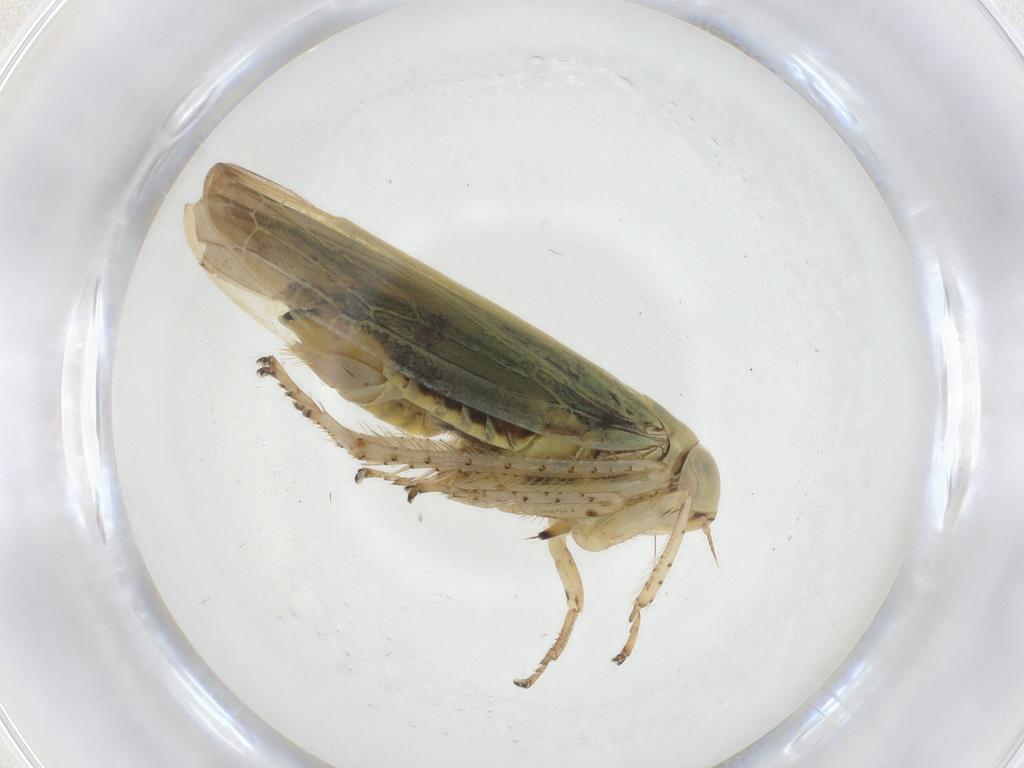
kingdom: Animalia
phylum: Arthropoda
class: Insecta
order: Hemiptera
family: Cicadellidae
